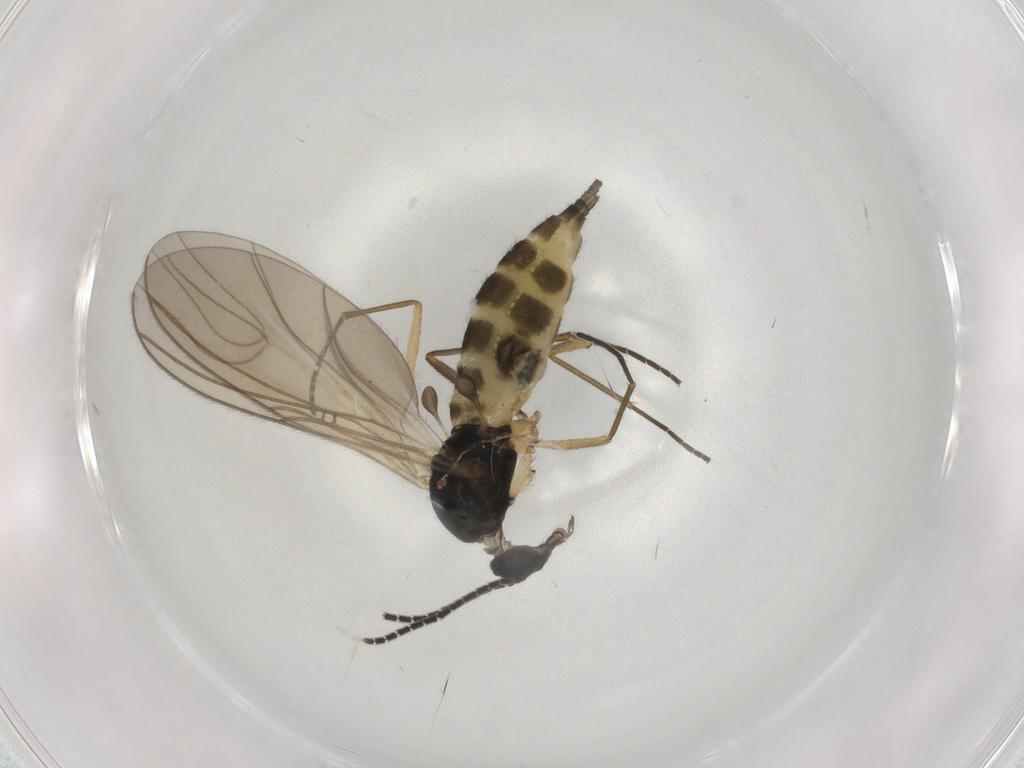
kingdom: Animalia
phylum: Arthropoda
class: Insecta
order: Diptera
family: Sciaridae
